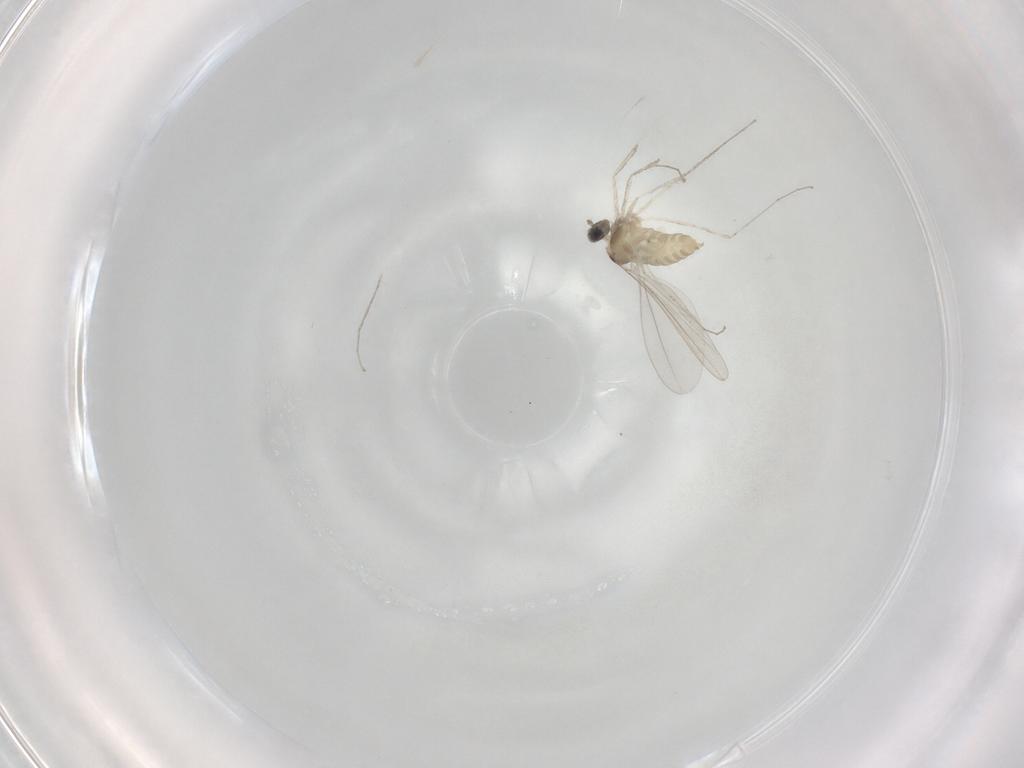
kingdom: Animalia
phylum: Arthropoda
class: Insecta
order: Diptera
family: Cecidomyiidae
